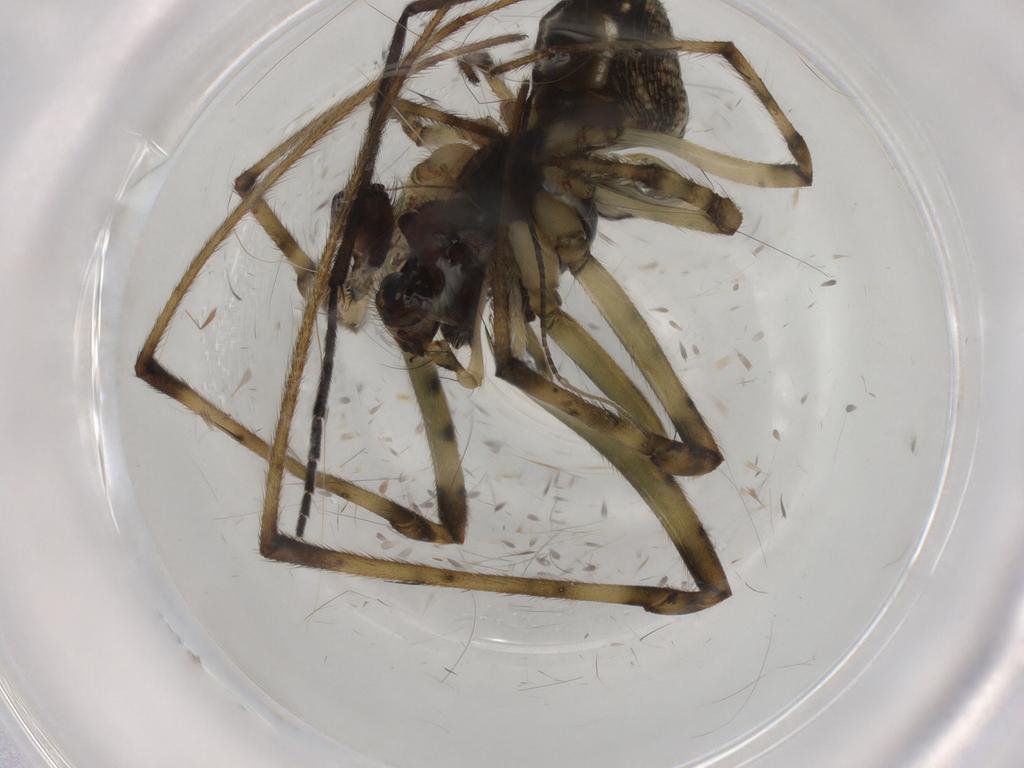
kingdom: Animalia
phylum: Arthropoda
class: Arachnida
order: Araneae
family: Tetragnathidae
